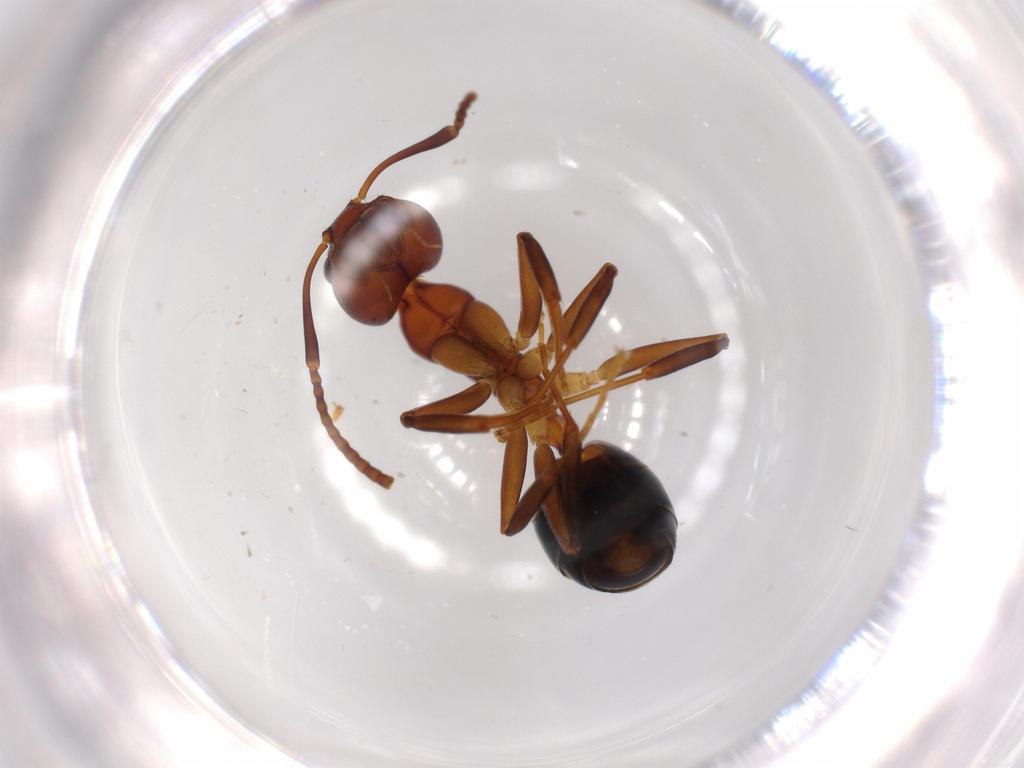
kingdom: Animalia
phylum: Arthropoda
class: Insecta
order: Hymenoptera
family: Formicidae
